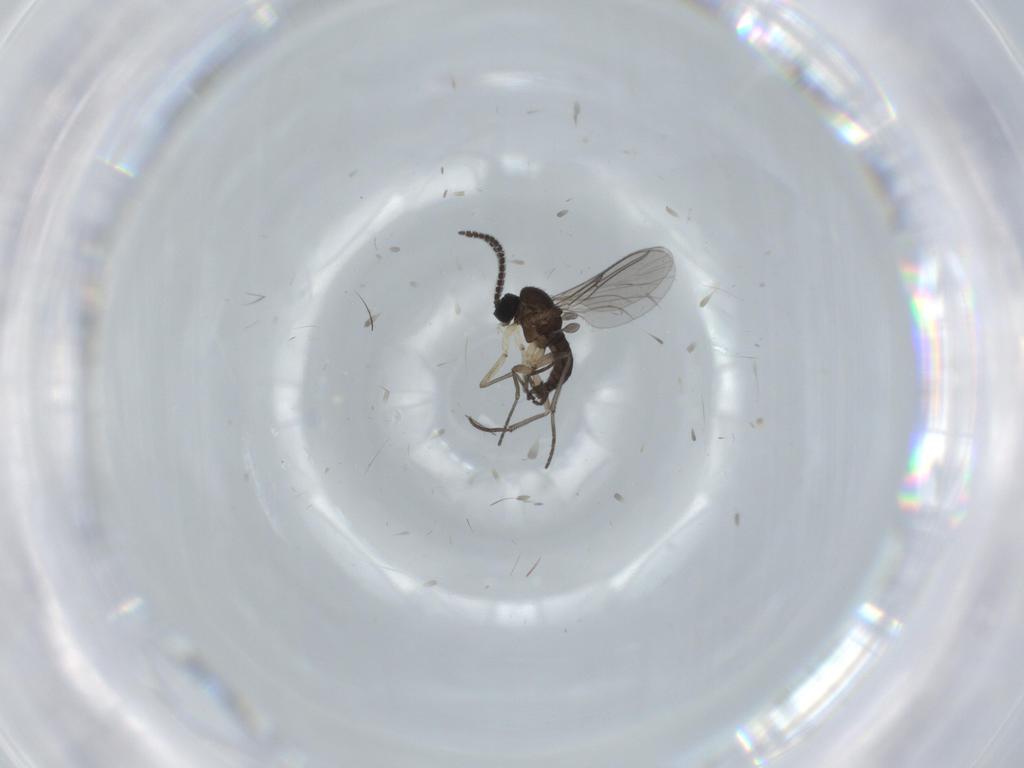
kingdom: Animalia
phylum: Arthropoda
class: Insecta
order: Diptera
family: Sciaridae
